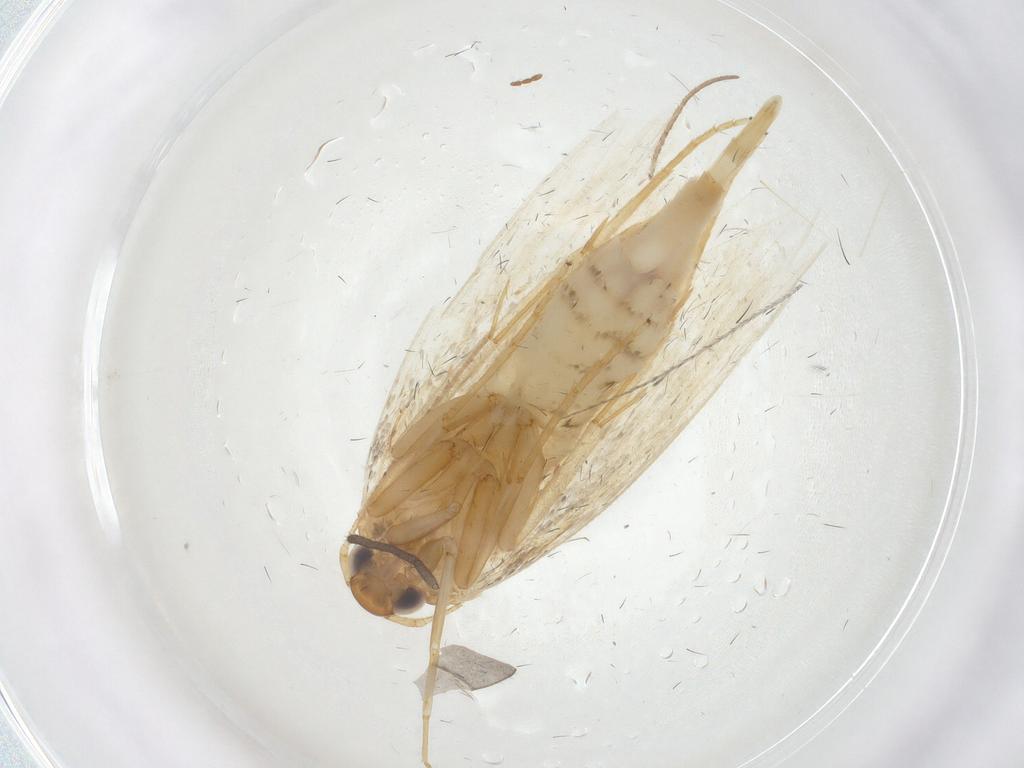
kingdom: Animalia
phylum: Arthropoda
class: Insecta
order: Lepidoptera
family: Oecophoridae
